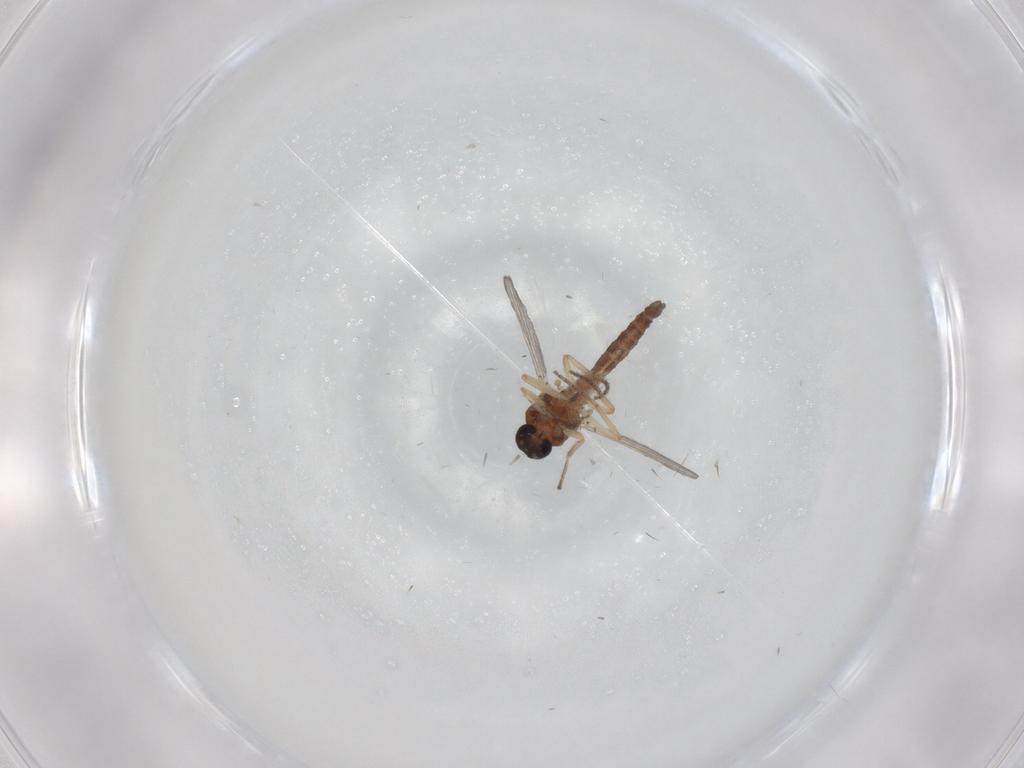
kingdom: Animalia
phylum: Arthropoda
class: Insecta
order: Diptera
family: Ceratopogonidae
